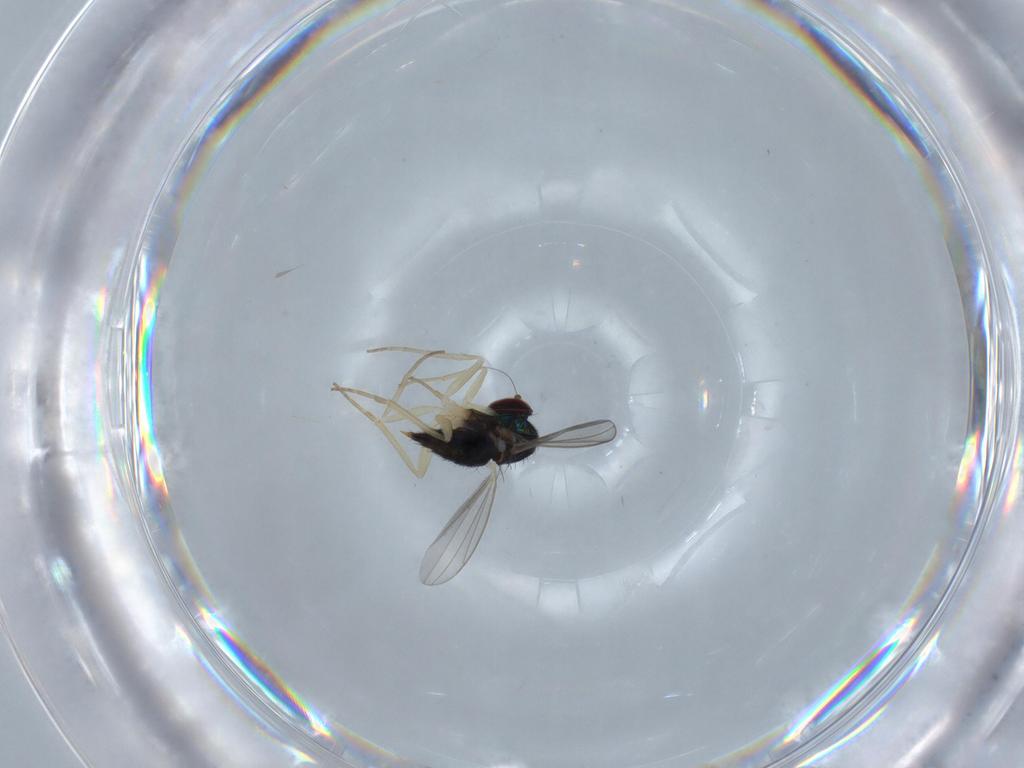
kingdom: Animalia
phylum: Arthropoda
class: Insecta
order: Diptera
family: Dolichopodidae
